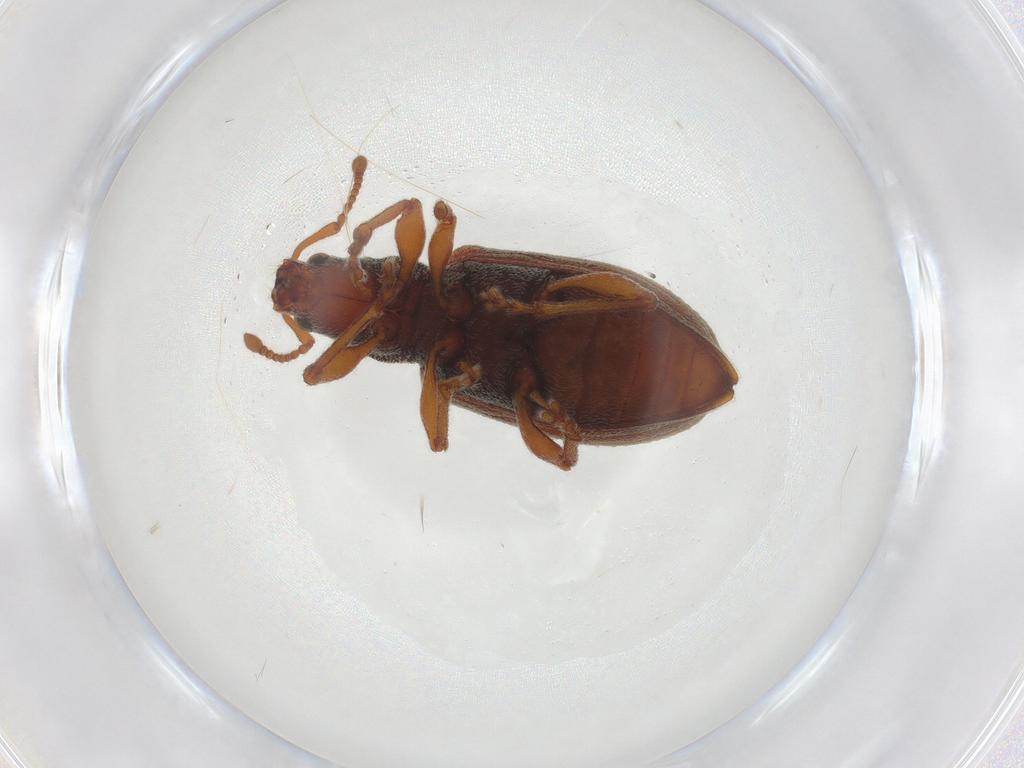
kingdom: Animalia
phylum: Arthropoda
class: Insecta
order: Coleoptera
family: Curculionidae
